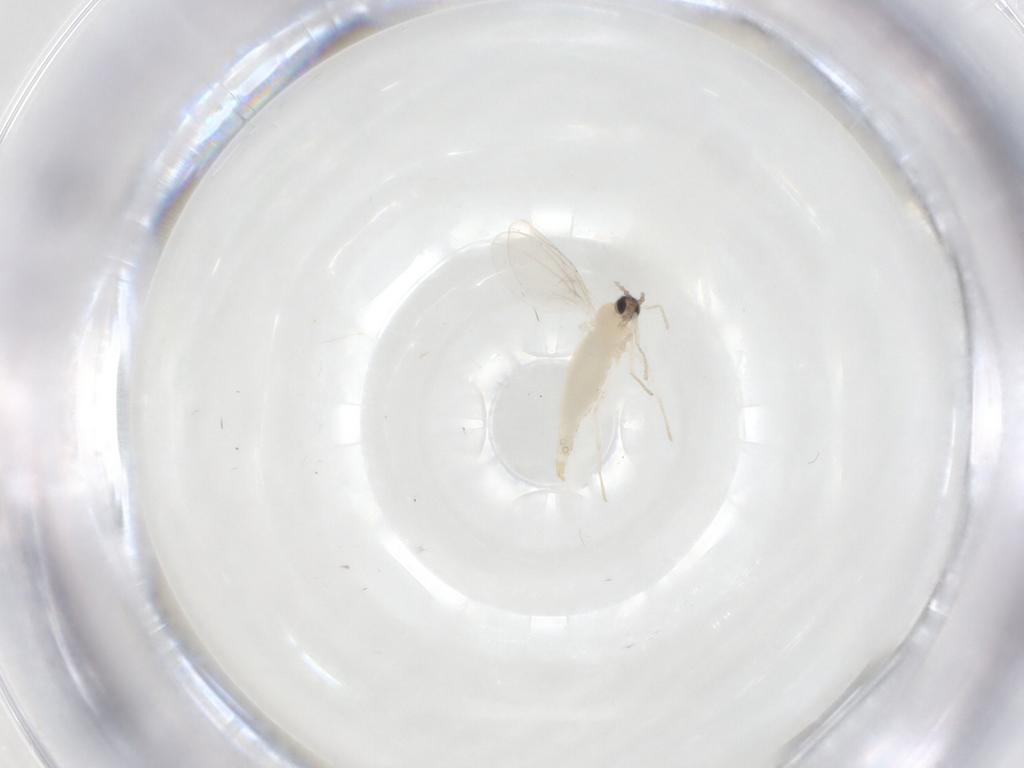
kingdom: Animalia
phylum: Arthropoda
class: Insecta
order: Diptera
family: Cecidomyiidae
